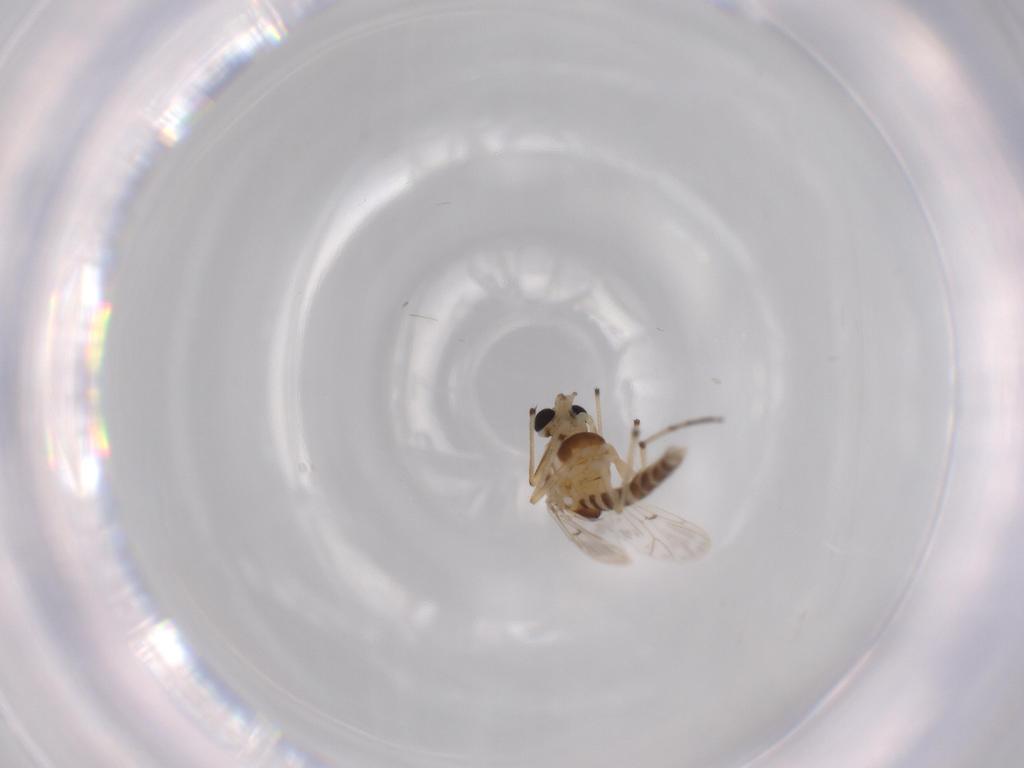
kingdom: Animalia
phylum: Arthropoda
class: Insecta
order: Diptera
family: Chironomidae
